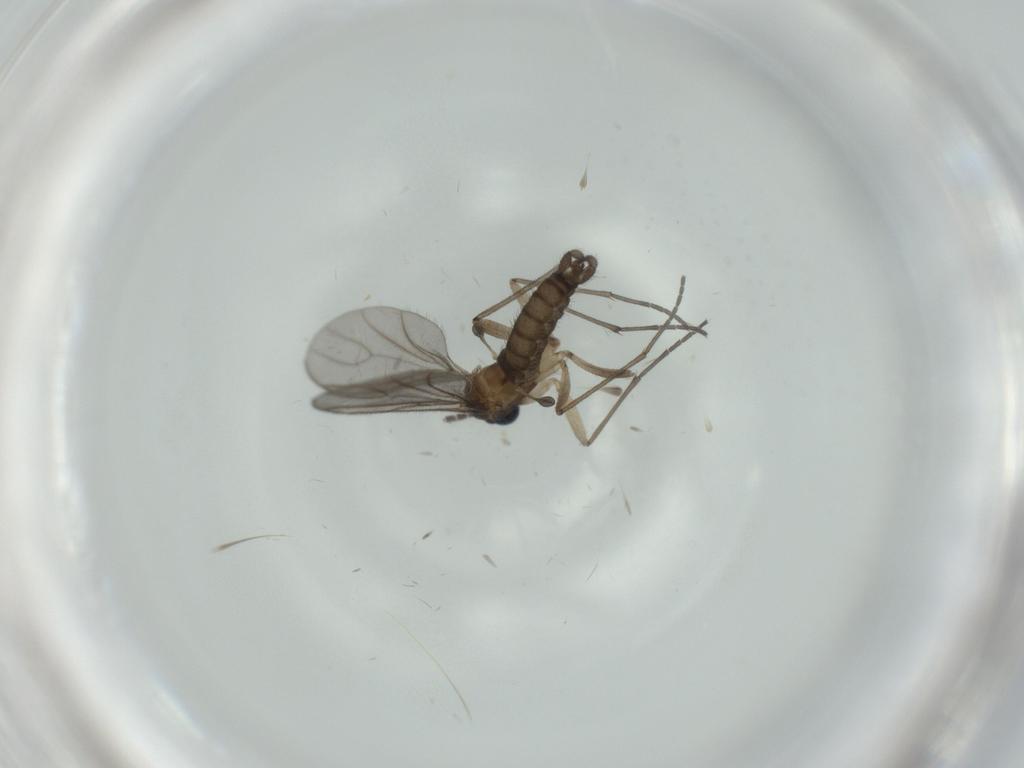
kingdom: Animalia
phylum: Arthropoda
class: Insecta
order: Diptera
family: Sciaridae
